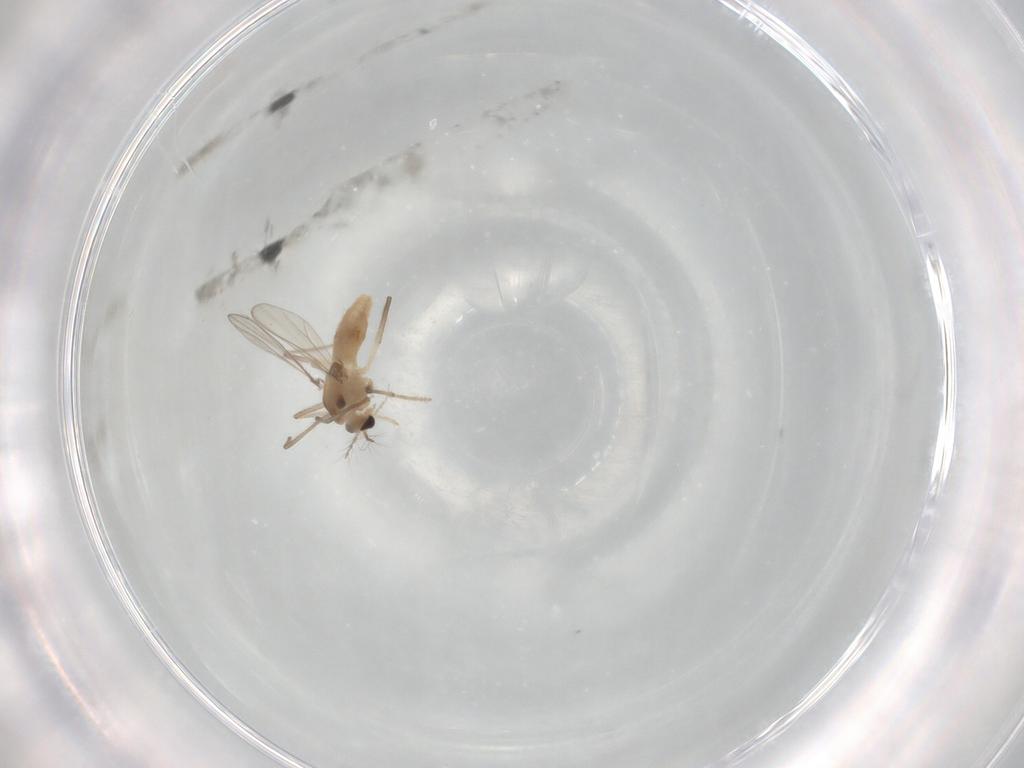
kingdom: Animalia
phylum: Arthropoda
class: Insecta
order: Diptera
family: Chironomidae
